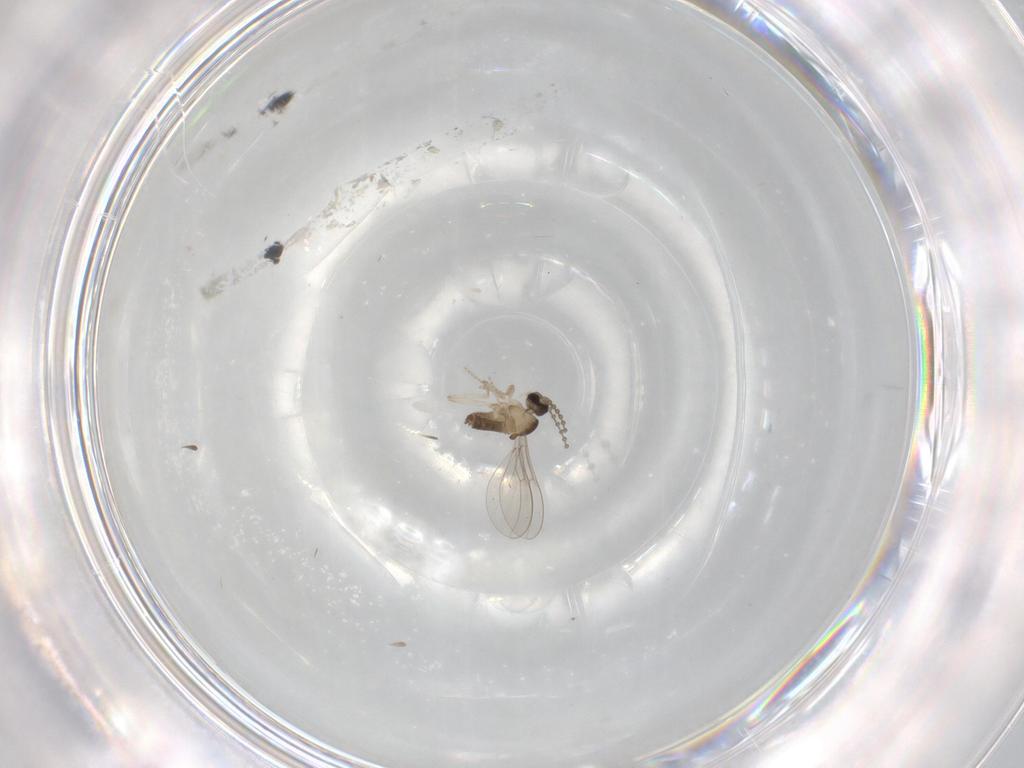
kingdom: Animalia
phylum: Arthropoda
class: Insecta
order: Diptera
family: Cecidomyiidae
